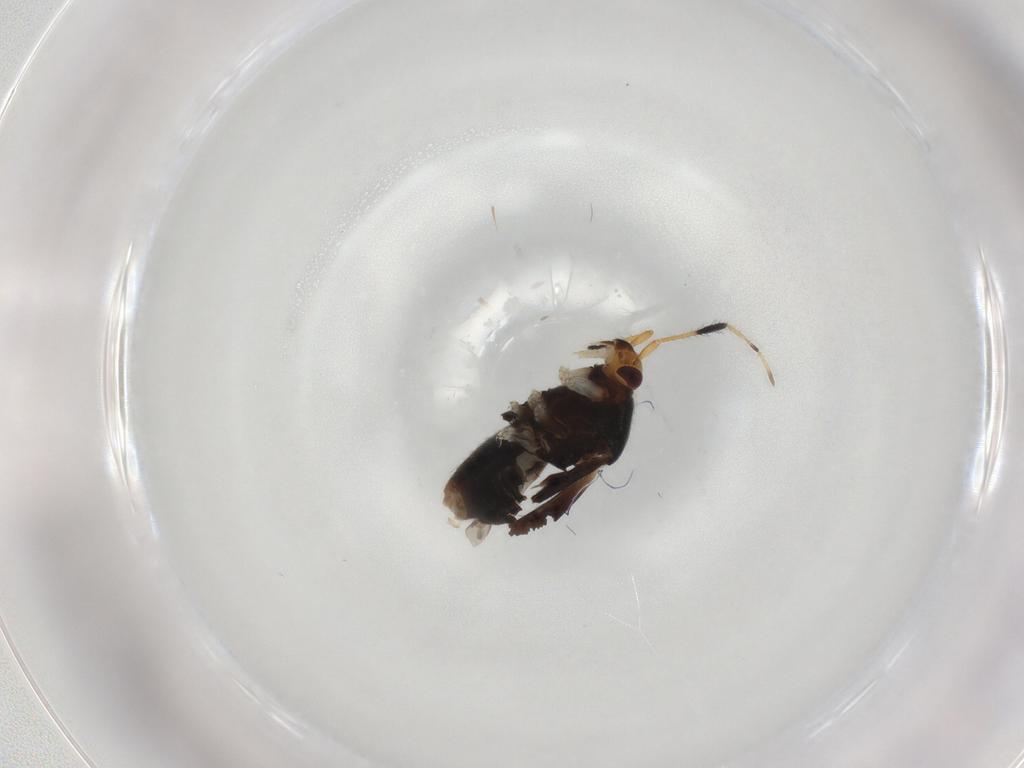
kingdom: Animalia
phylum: Arthropoda
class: Insecta
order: Hemiptera
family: Miridae
